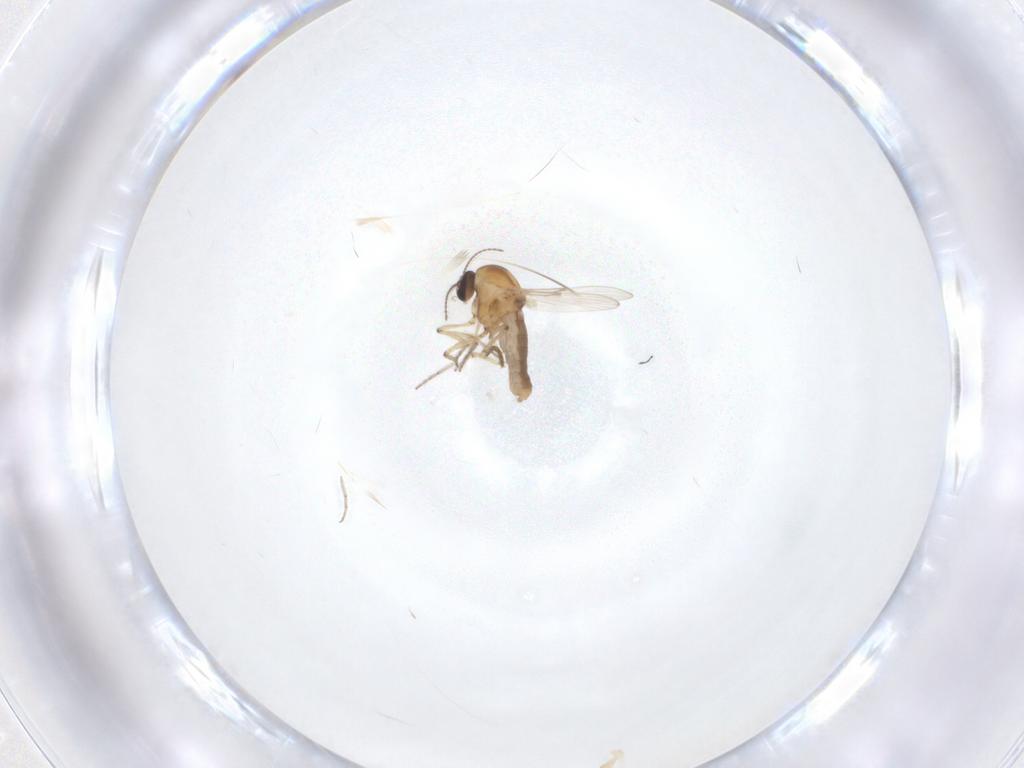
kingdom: Animalia
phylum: Arthropoda
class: Insecta
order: Diptera
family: Ceratopogonidae
